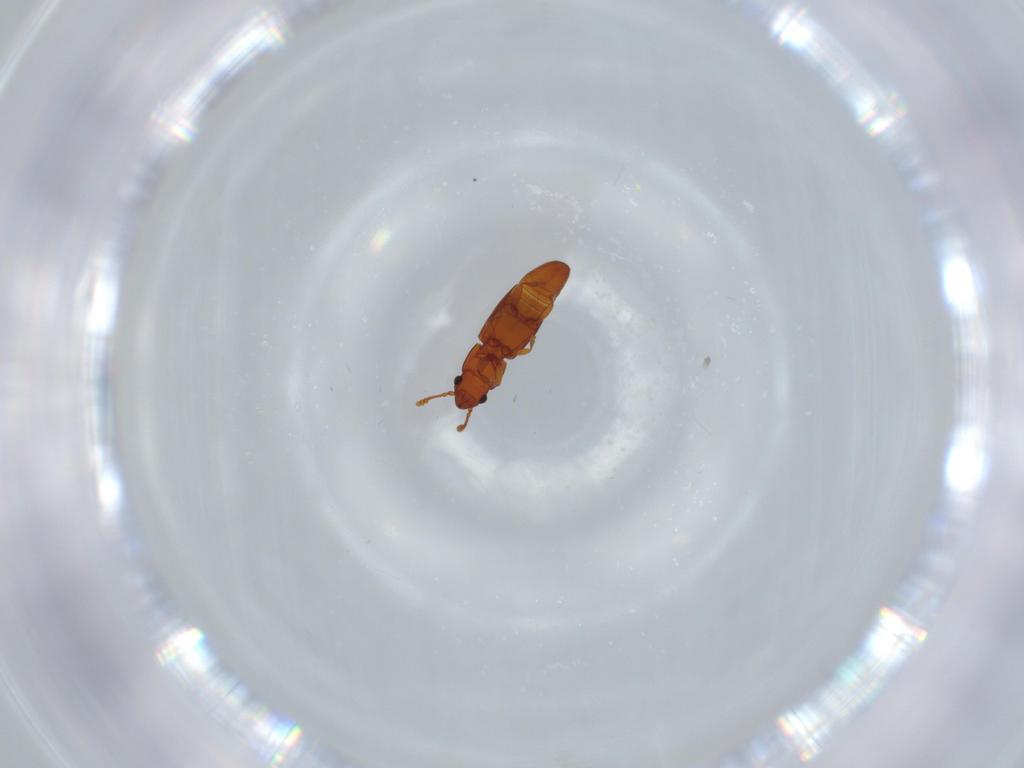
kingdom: Animalia
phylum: Arthropoda
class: Insecta
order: Coleoptera
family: Smicripidae
